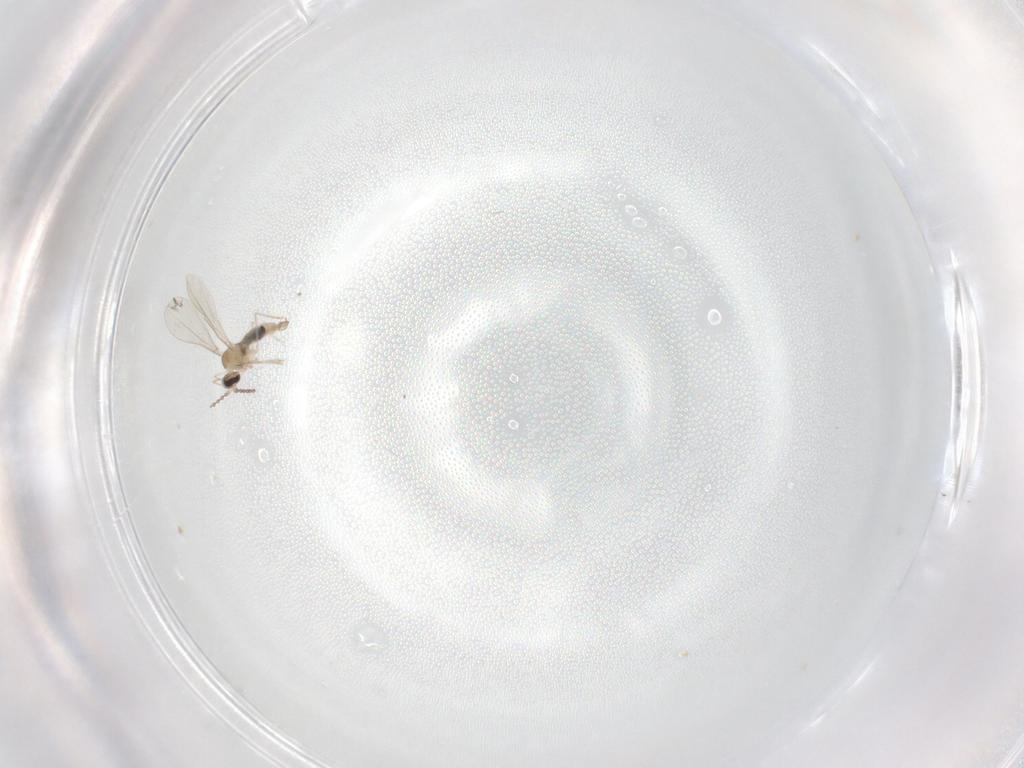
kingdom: Animalia
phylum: Arthropoda
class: Insecta
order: Diptera
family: Cecidomyiidae
